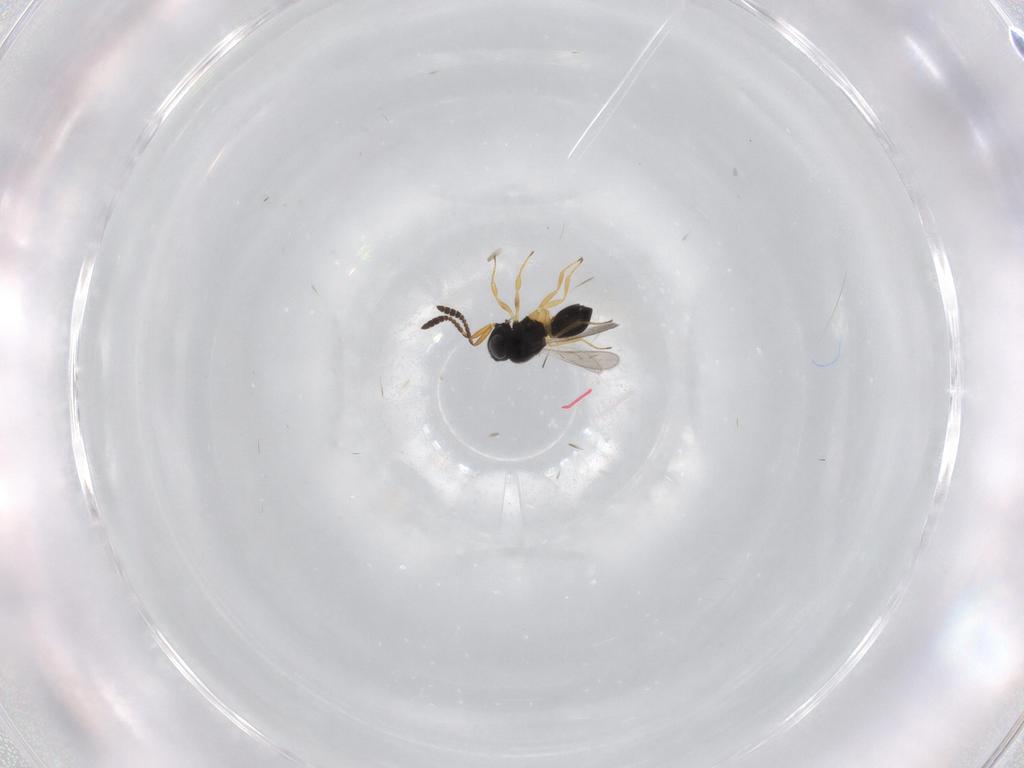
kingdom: Animalia
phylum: Arthropoda
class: Insecta
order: Hymenoptera
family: Scelionidae
